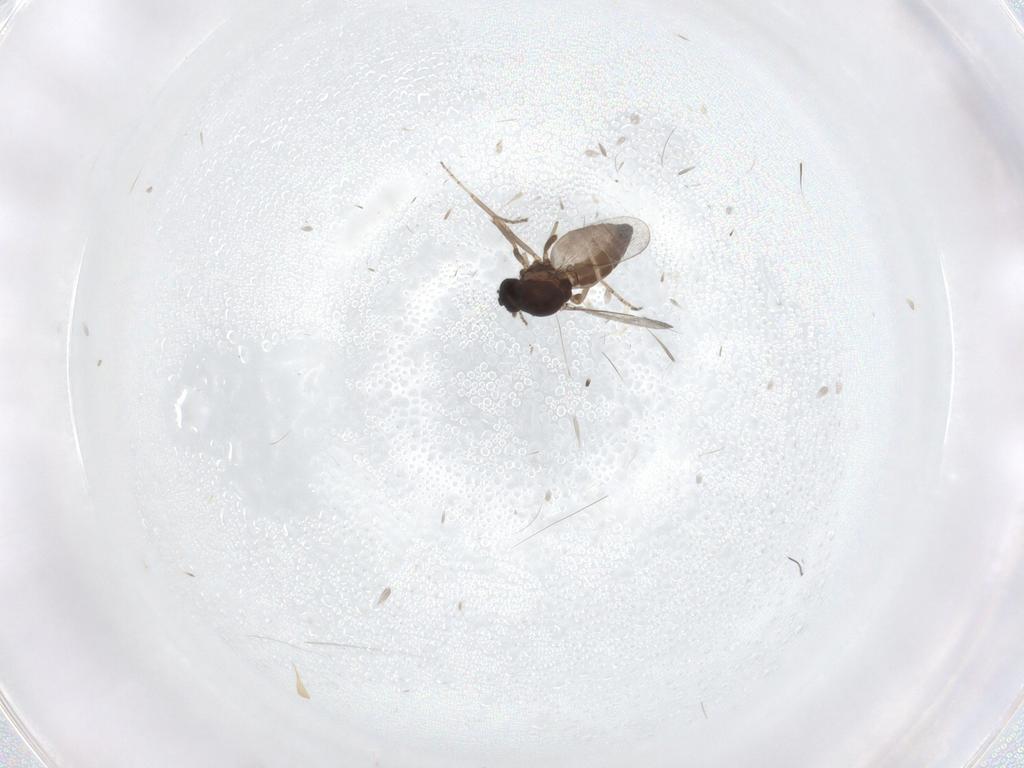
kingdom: Animalia
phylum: Arthropoda
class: Insecta
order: Diptera
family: Ceratopogonidae
